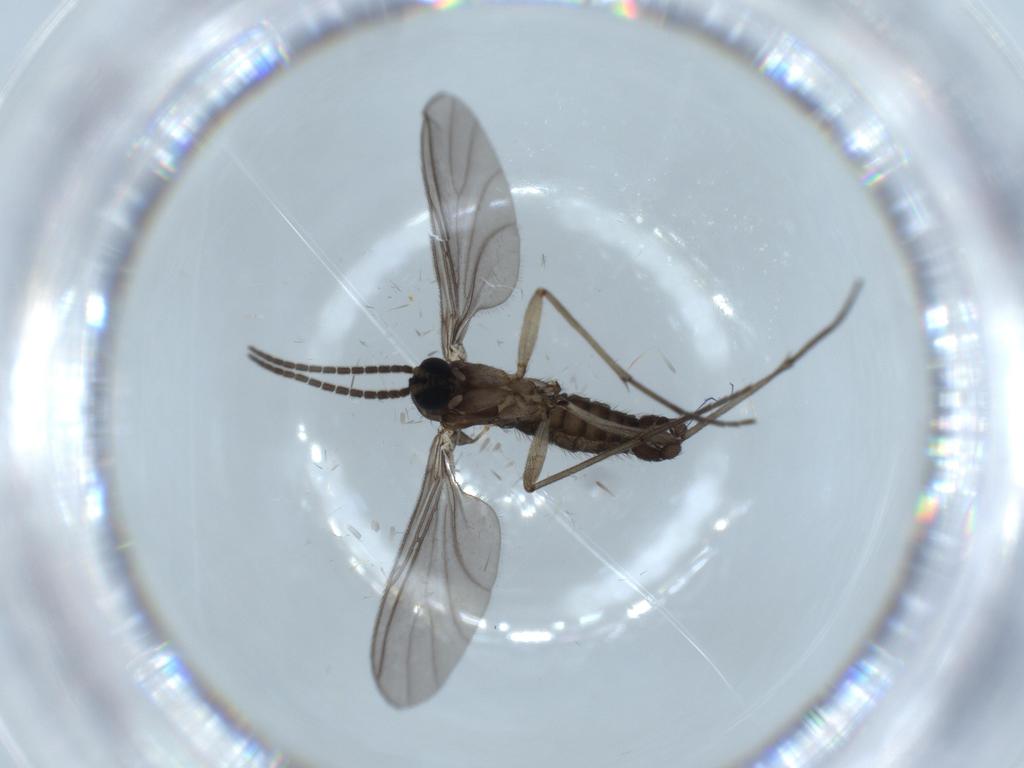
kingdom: Animalia
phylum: Arthropoda
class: Insecta
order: Diptera
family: Sciaridae
